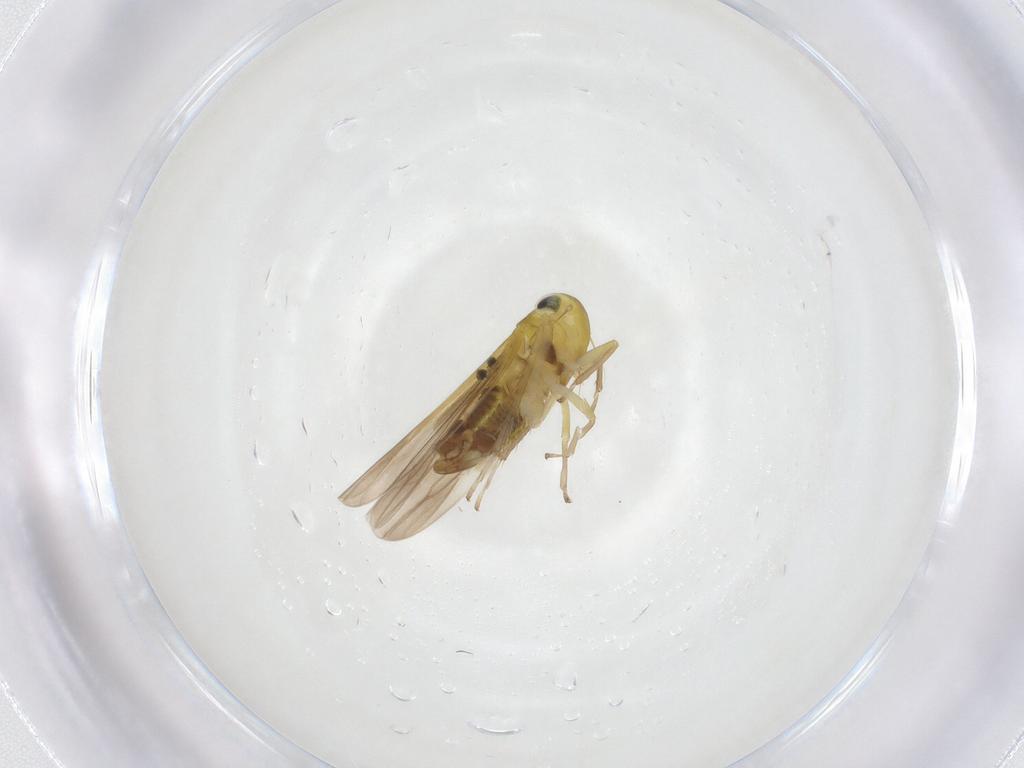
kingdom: Animalia
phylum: Arthropoda
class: Insecta
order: Hemiptera
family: Cicadellidae
